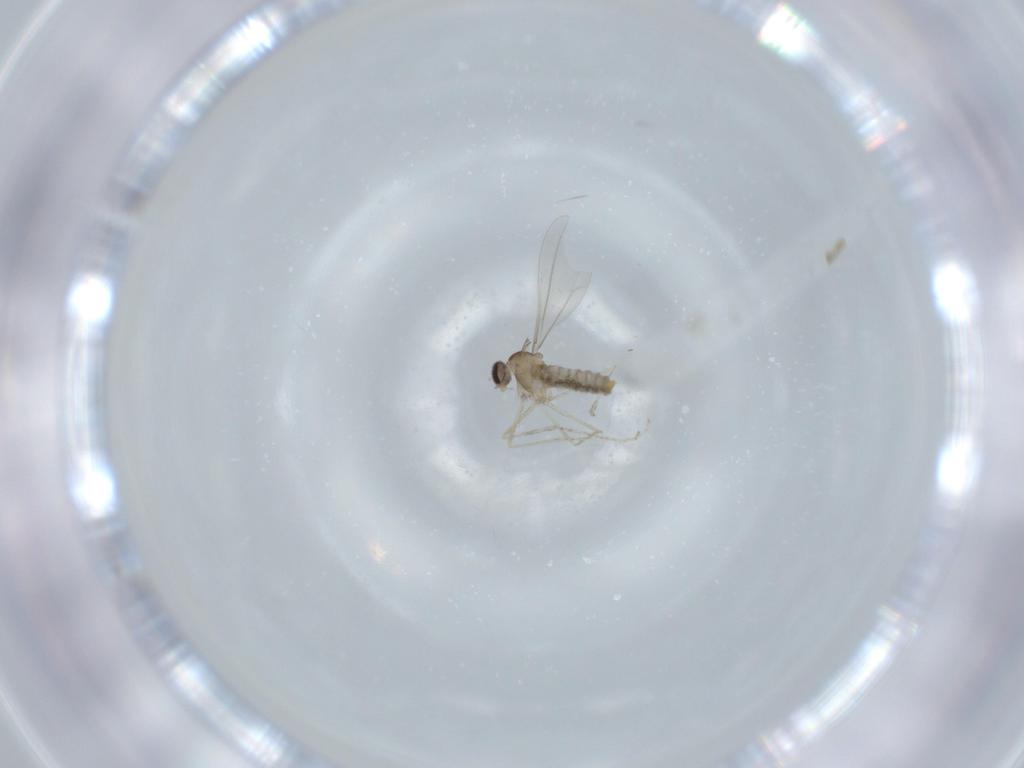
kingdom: Animalia
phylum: Arthropoda
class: Insecta
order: Diptera
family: Cecidomyiidae
